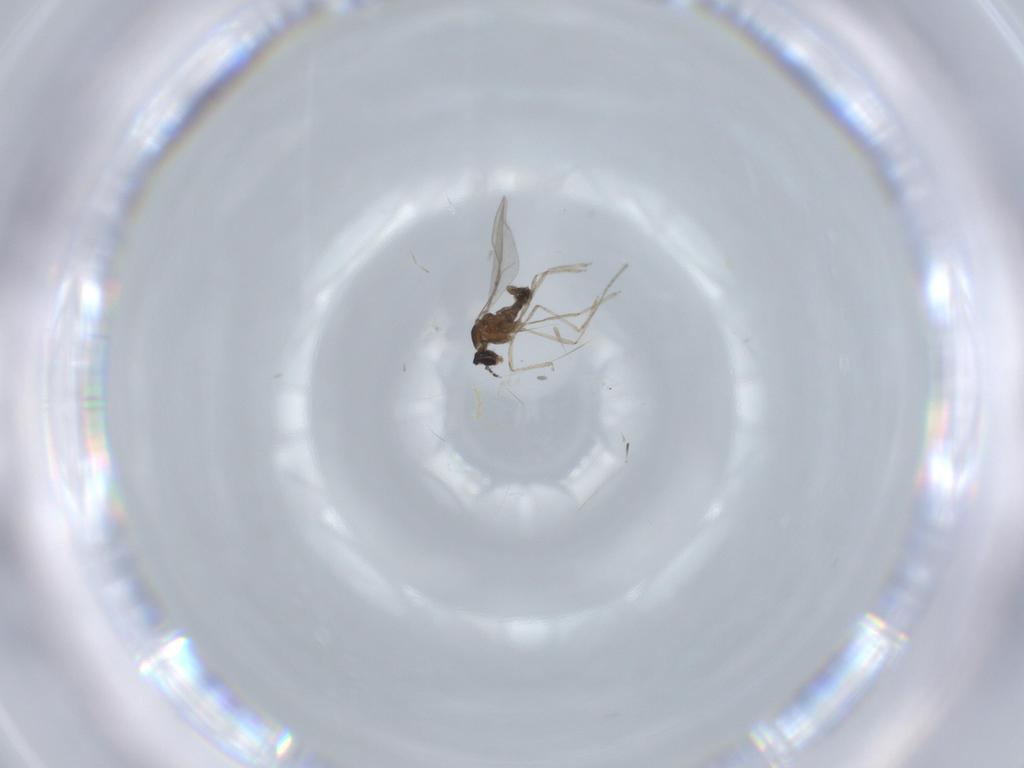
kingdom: Animalia
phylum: Arthropoda
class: Insecta
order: Diptera
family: Cecidomyiidae
